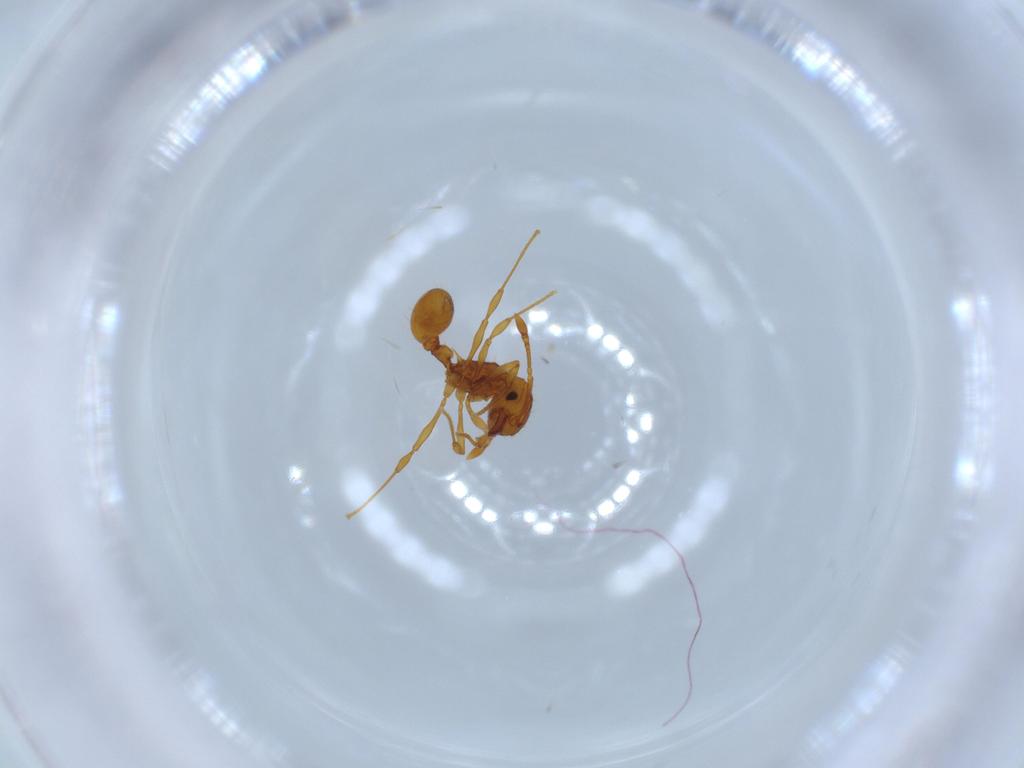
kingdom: Animalia
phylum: Arthropoda
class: Insecta
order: Hymenoptera
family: Formicidae
